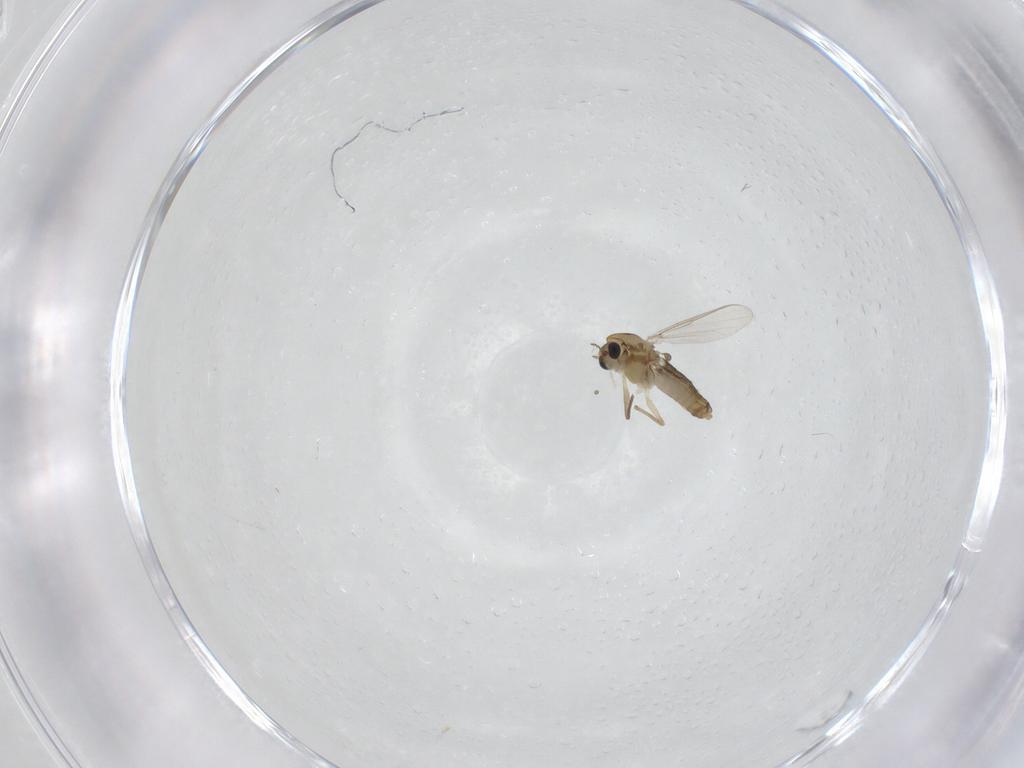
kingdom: Animalia
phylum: Arthropoda
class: Insecta
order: Diptera
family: Chironomidae
